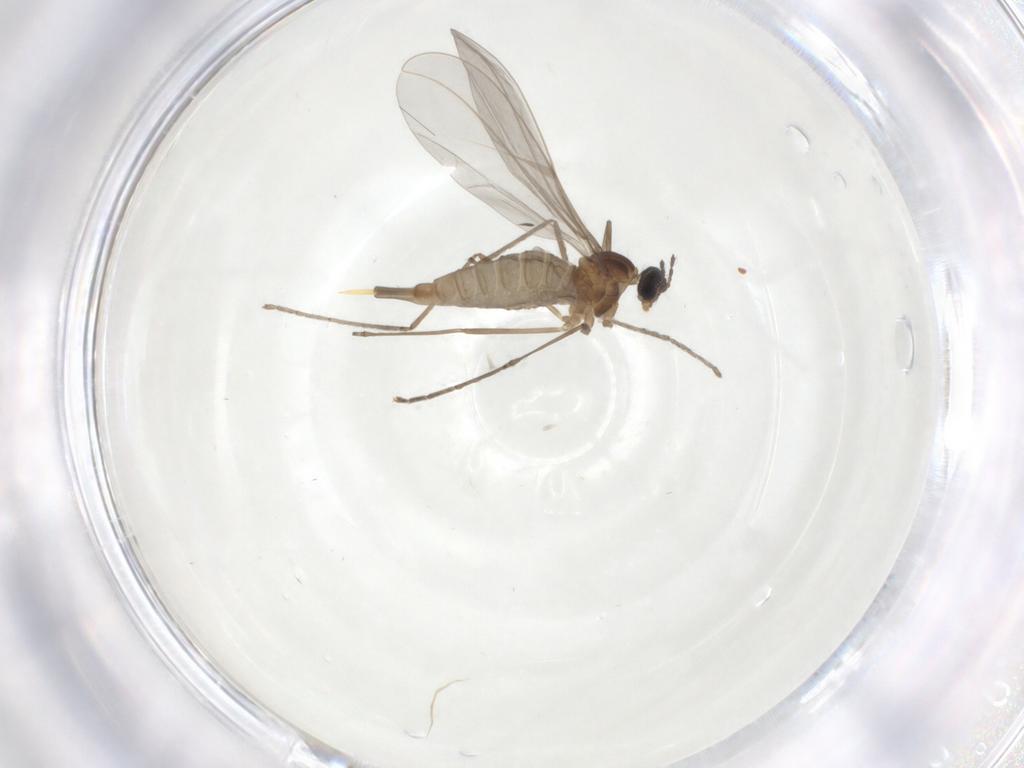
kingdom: Animalia
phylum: Arthropoda
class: Insecta
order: Diptera
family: Cecidomyiidae
